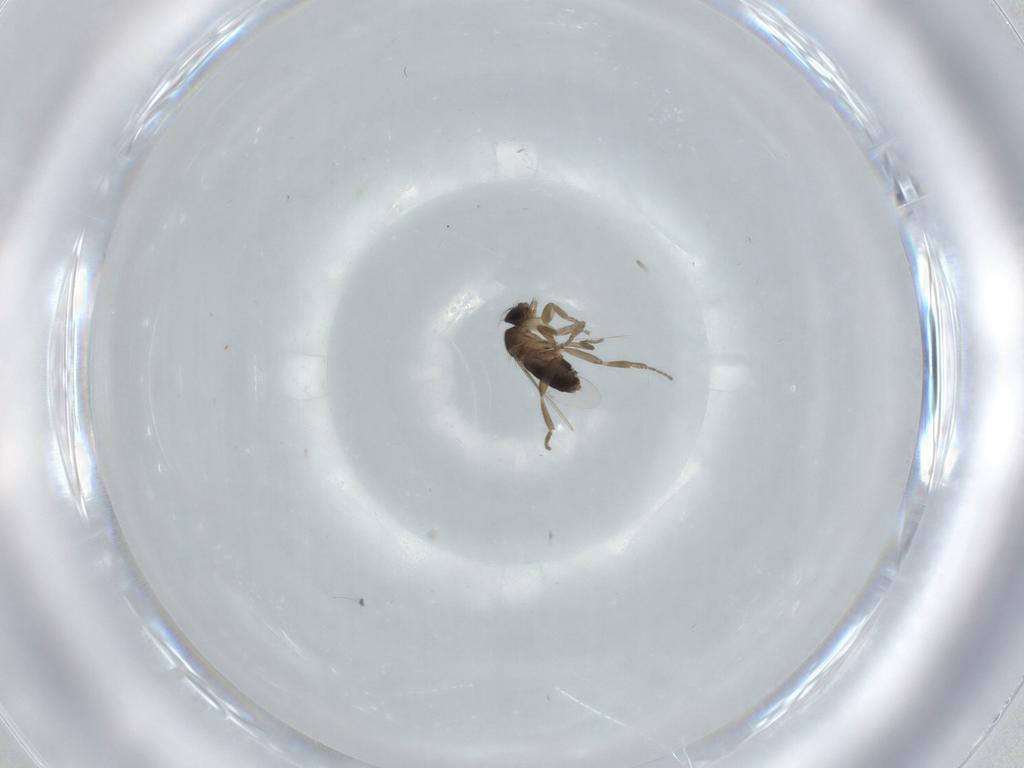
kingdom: Animalia
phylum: Arthropoda
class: Insecta
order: Diptera
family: Phoridae
